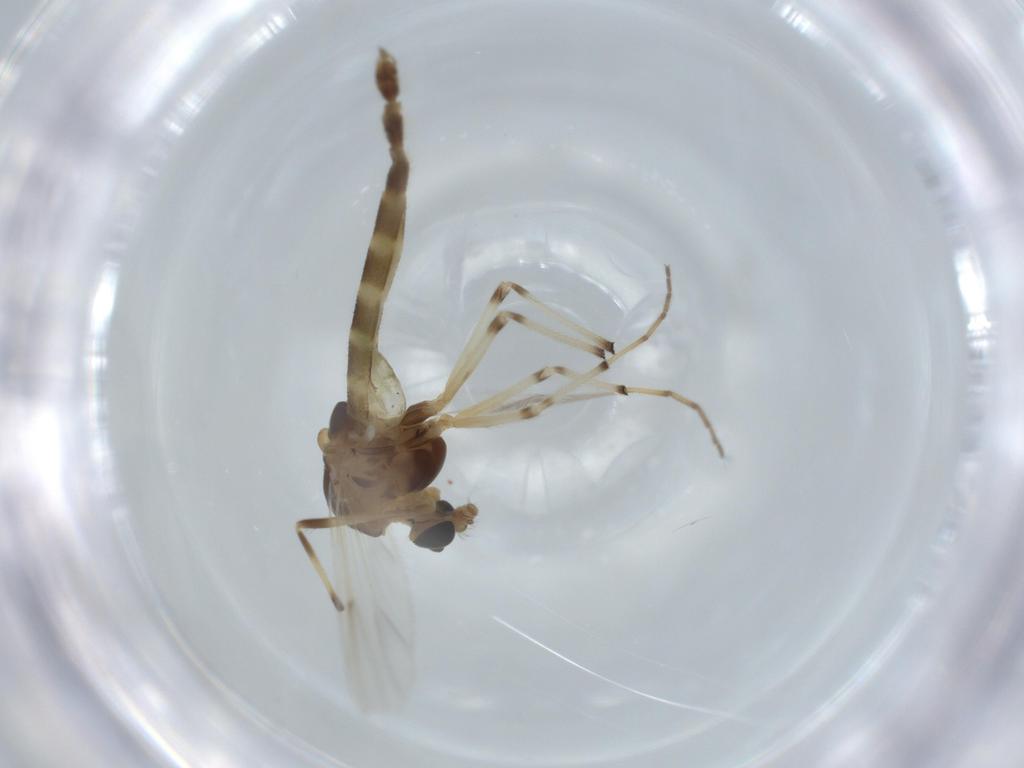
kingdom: Animalia
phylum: Arthropoda
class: Insecta
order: Diptera
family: Chironomidae
